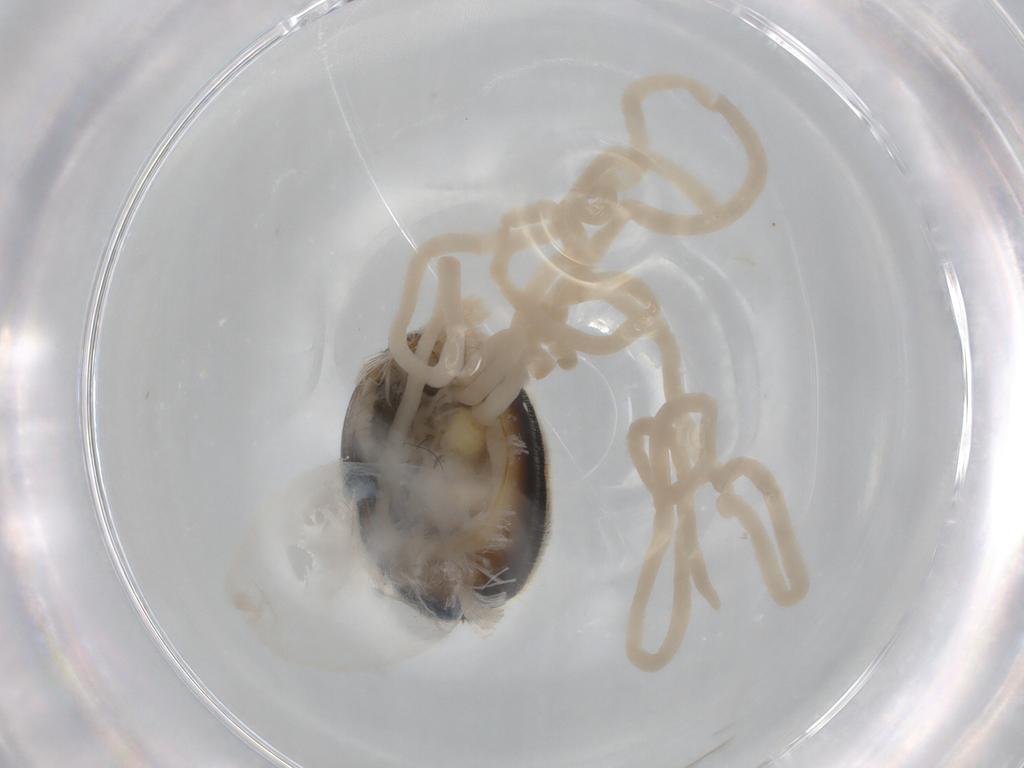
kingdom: Animalia
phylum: Arthropoda
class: Insecta
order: Lepidoptera
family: Crambidae
